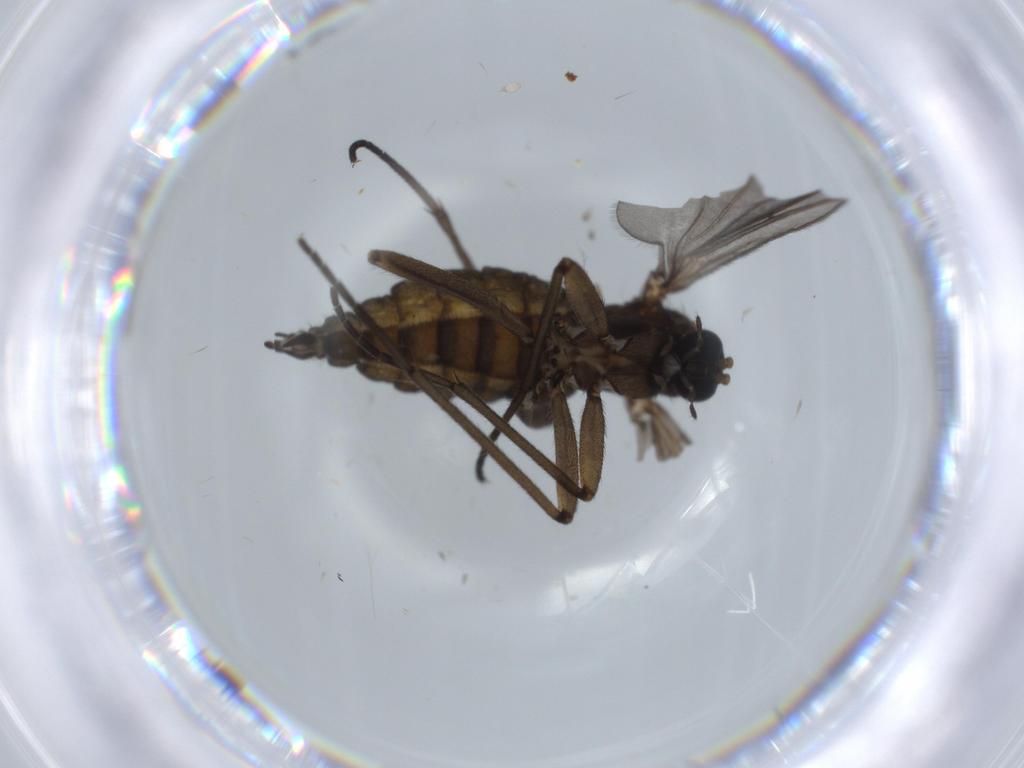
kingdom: Animalia
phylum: Arthropoda
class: Insecta
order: Diptera
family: Sciaridae
